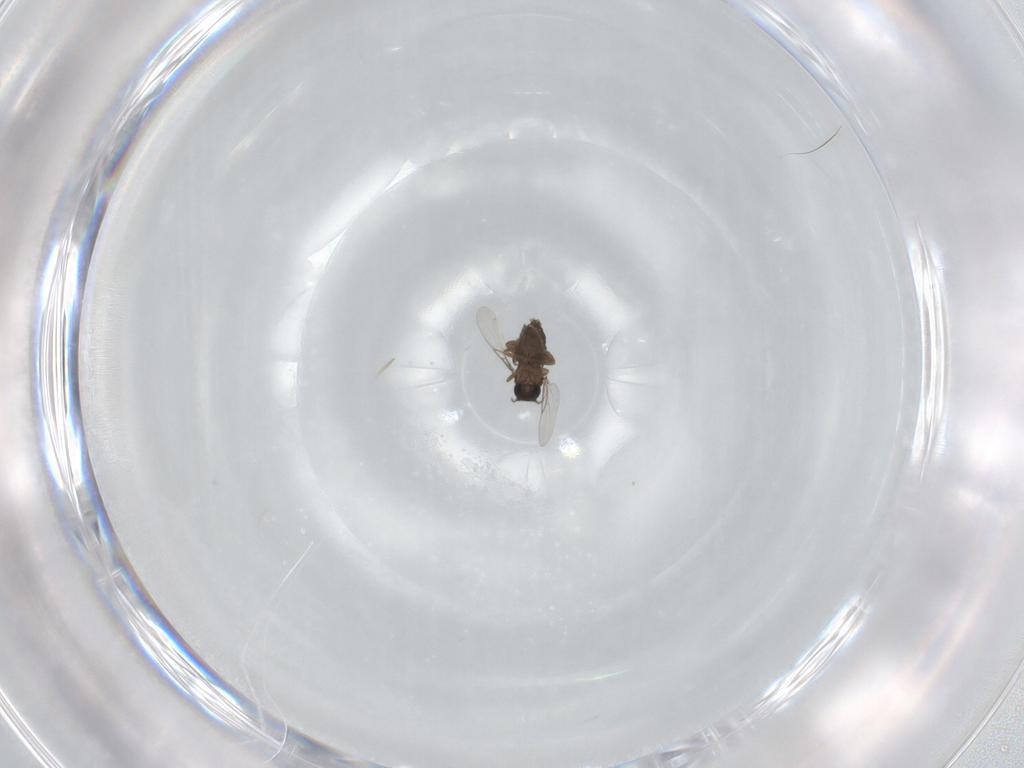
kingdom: Animalia
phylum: Arthropoda
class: Insecta
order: Diptera
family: Phoridae
